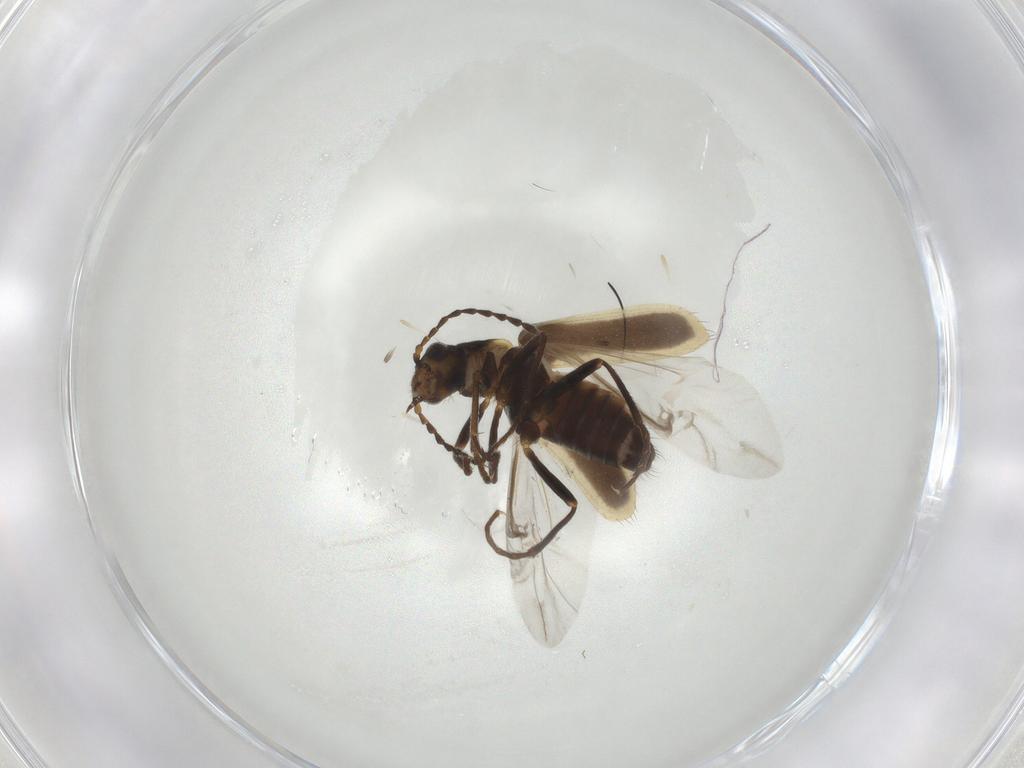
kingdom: Animalia
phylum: Arthropoda
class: Insecta
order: Coleoptera
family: Melyridae
